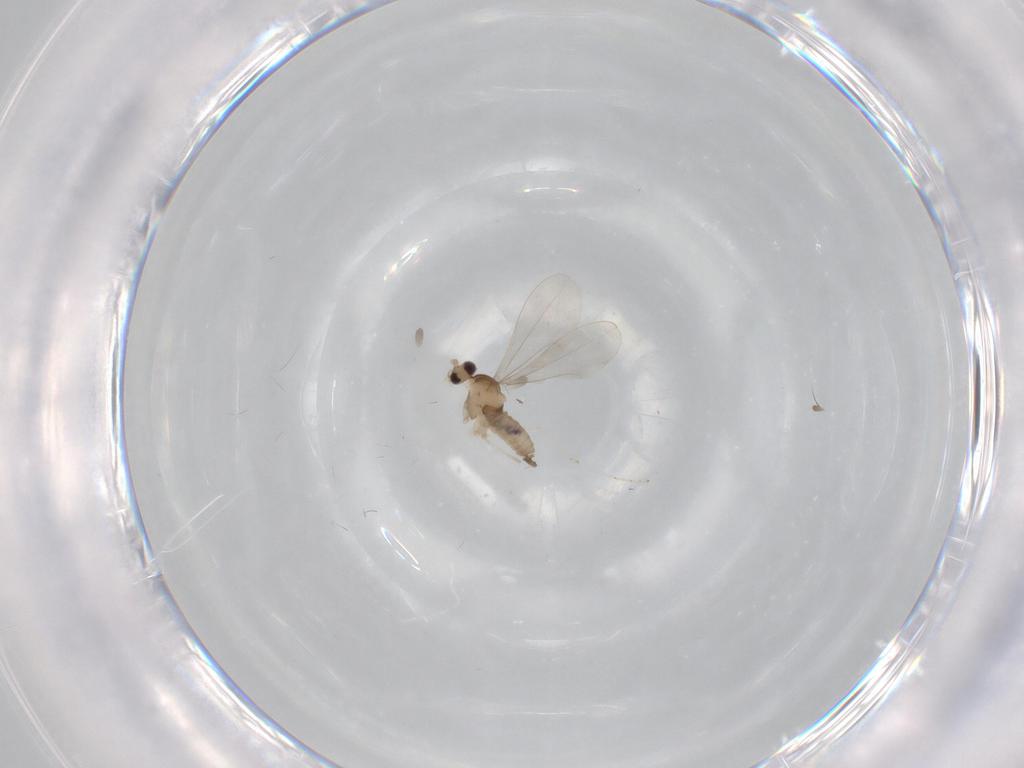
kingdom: Animalia
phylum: Arthropoda
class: Insecta
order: Diptera
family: Cecidomyiidae
